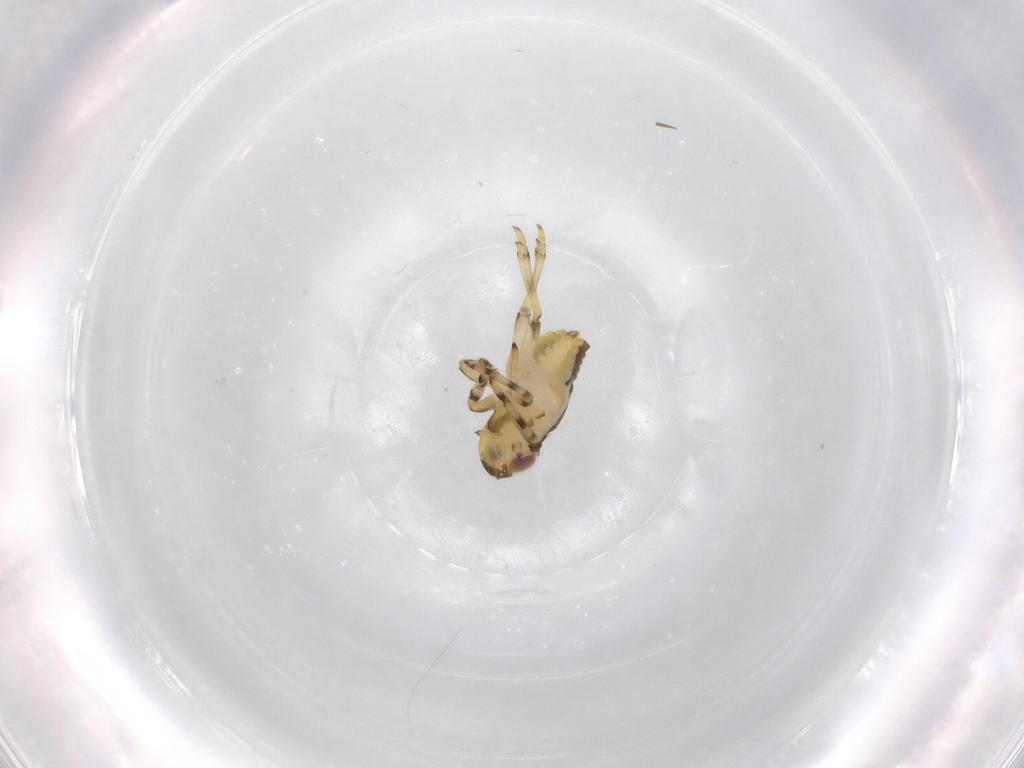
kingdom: Animalia
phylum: Arthropoda
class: Insecta
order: Hemiptera
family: Issidae
